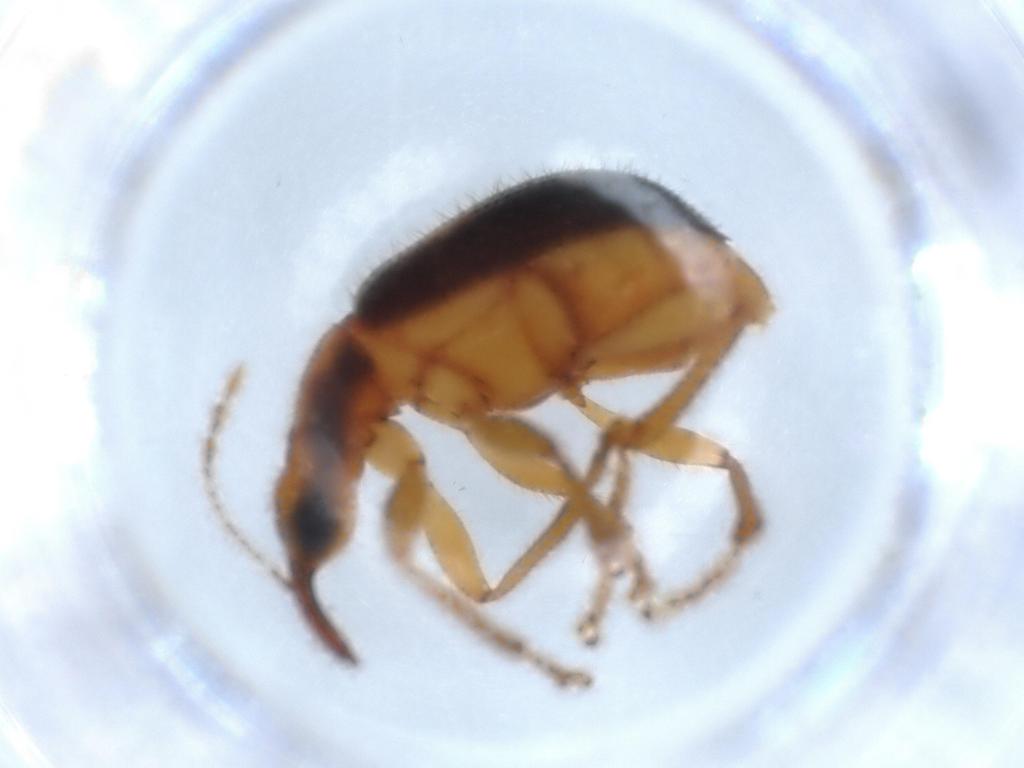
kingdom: Animalia
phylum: Arthropoda
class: Insecta
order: Coleoptera
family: Attelabidae
